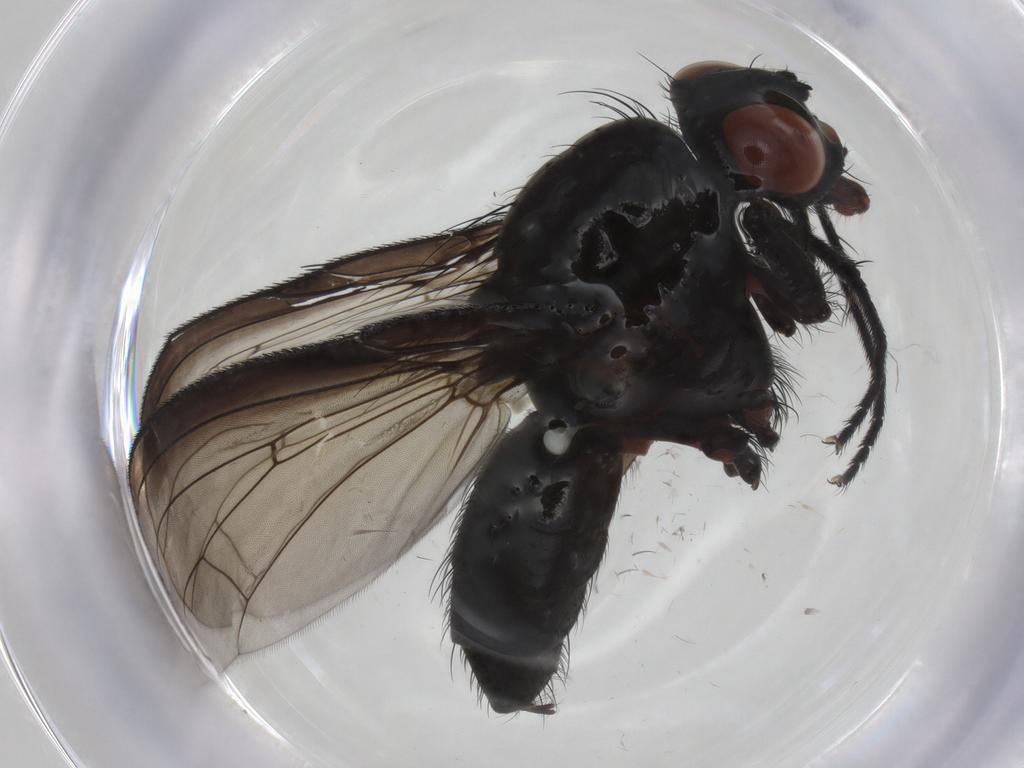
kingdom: Animalia
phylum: Arthropoda
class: Insecta
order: Diptera
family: Anthomyiidae
